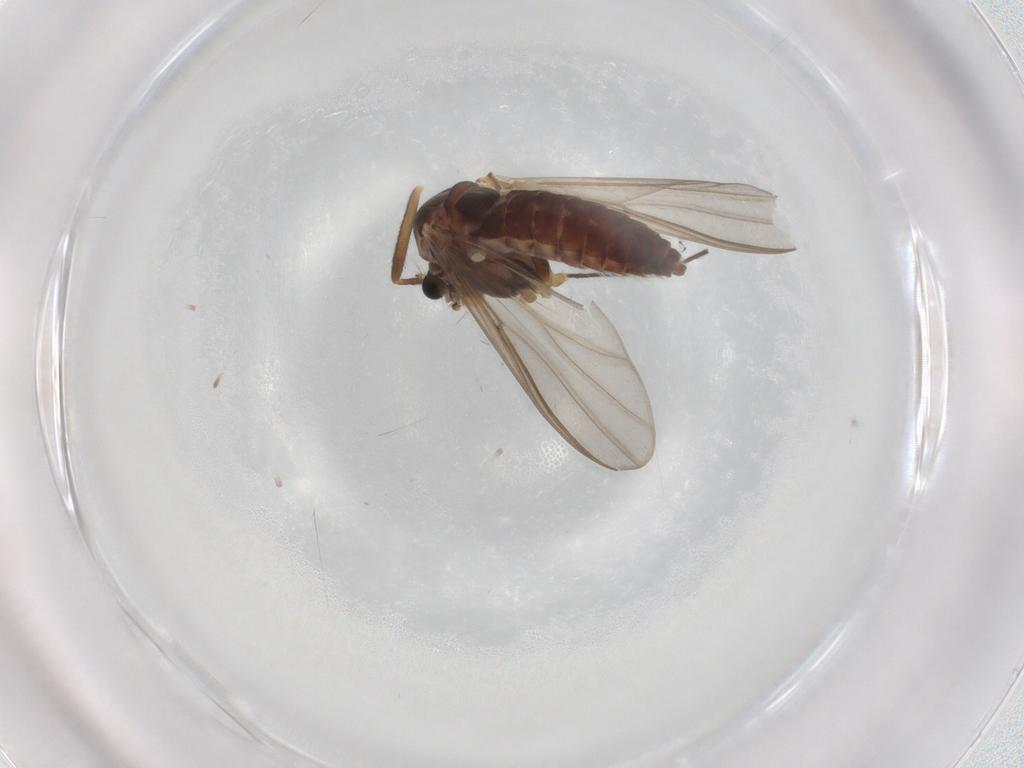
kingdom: Animalia
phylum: Arthropoda
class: Insecta
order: Diptera
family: Chironomidae
